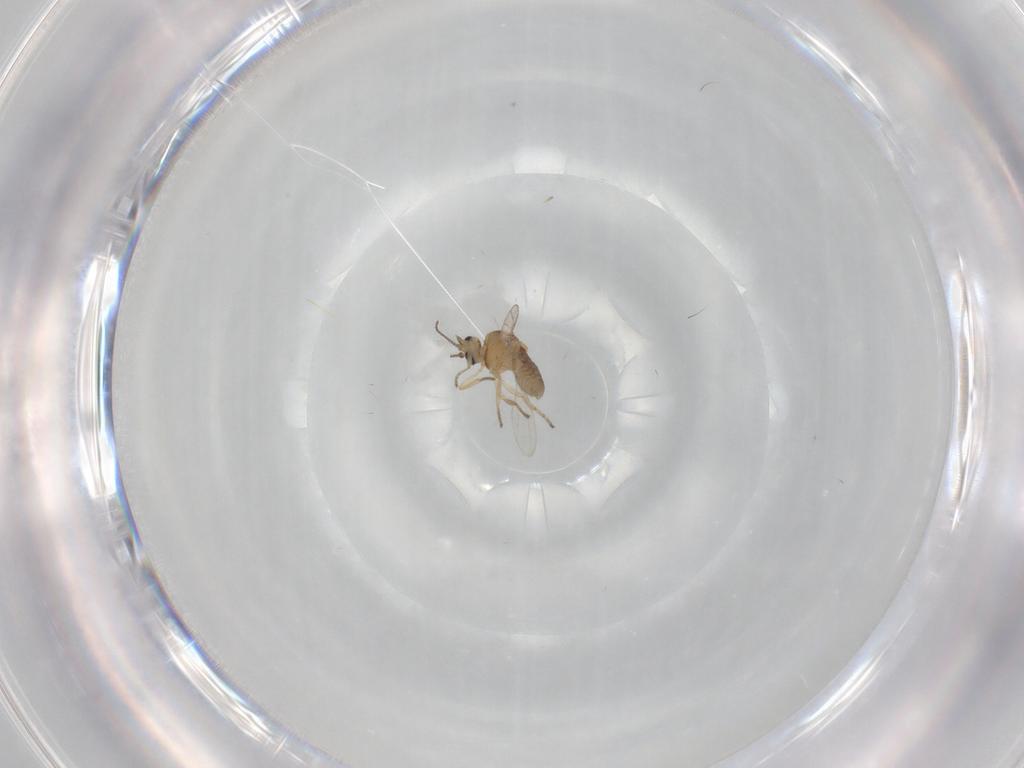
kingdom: Animalia
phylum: Arthropoda
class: Insecta
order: Diptera
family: Ceratopogonidae
